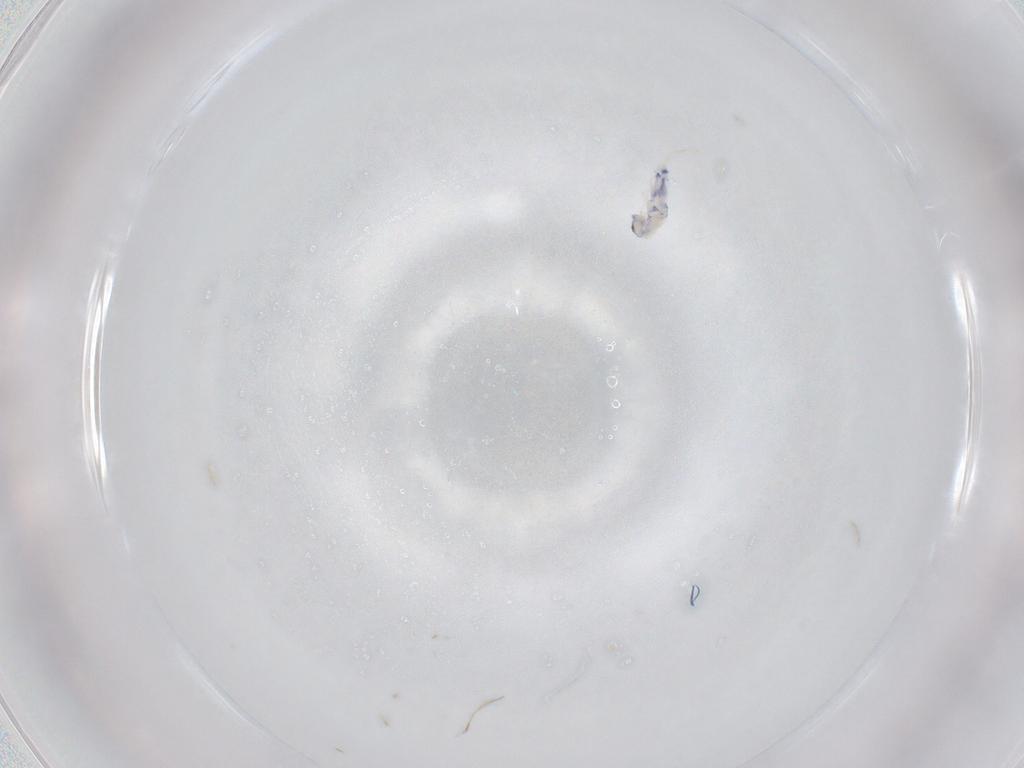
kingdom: Animalia
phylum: Arthropoda
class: Collembola
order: Entomobryomorpha
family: Entomobryidae
